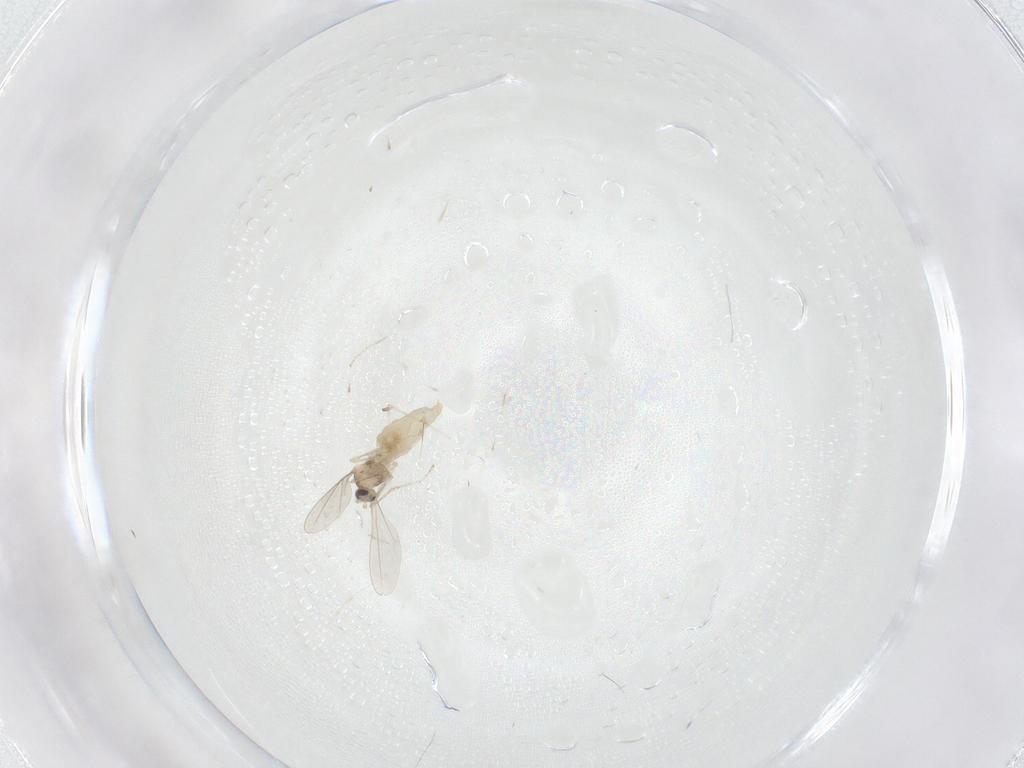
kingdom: Animalia
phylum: Arthropoda
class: Insecta
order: Diptera
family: Cecidomyiidae
